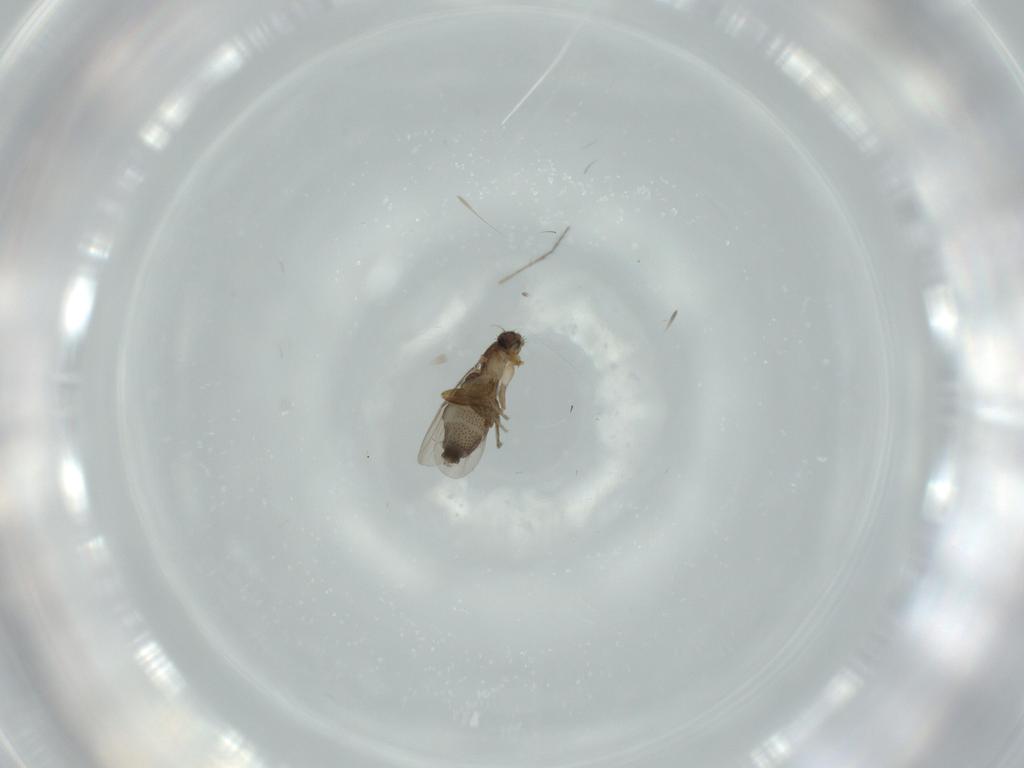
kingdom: Animalia
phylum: Arthropoda
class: Insecta
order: Diptera
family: Phoridae
